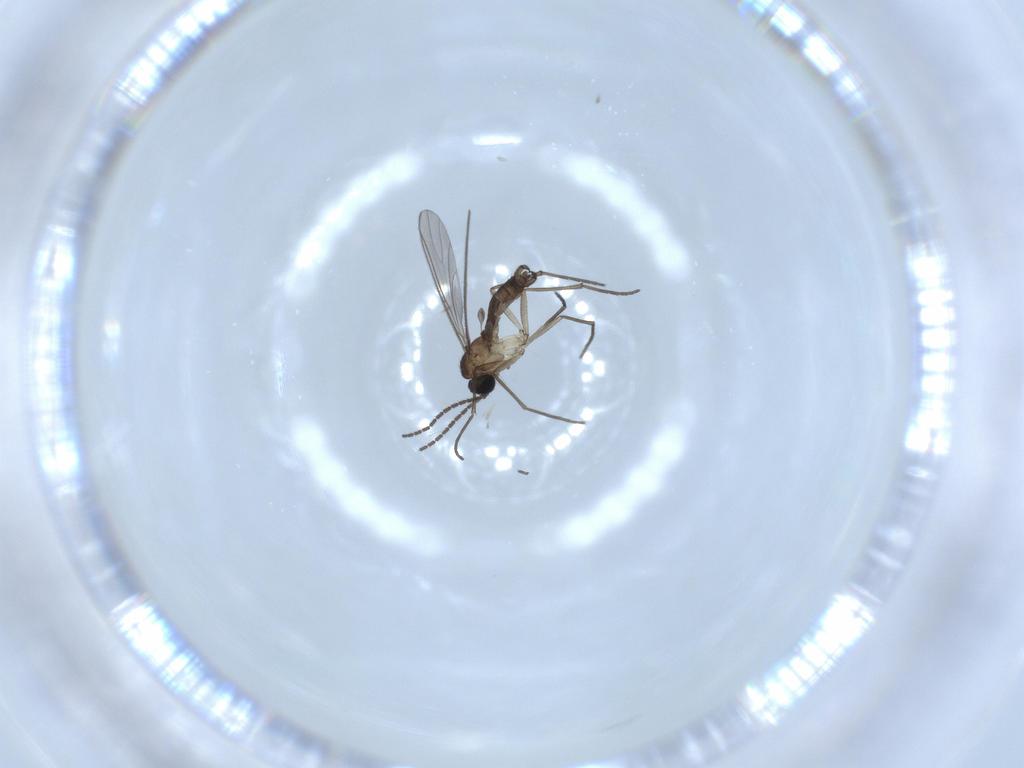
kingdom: Animalia
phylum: Arthropoda
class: Insecta
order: Diptera
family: Sciaridae
